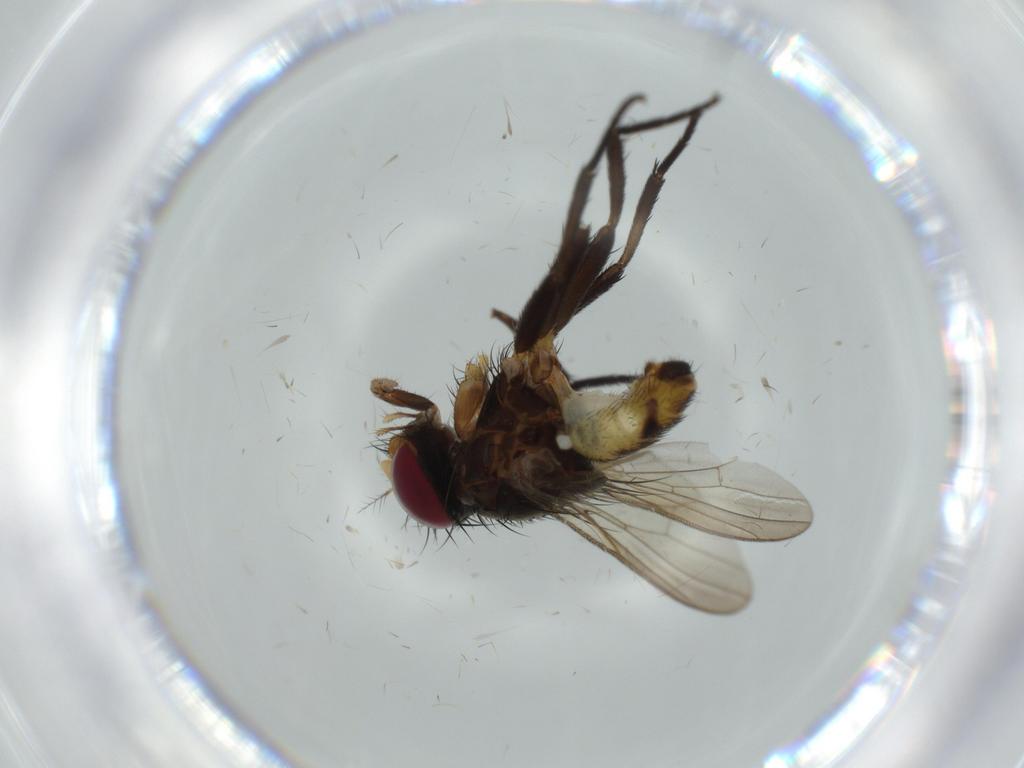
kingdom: Animalia
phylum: Arthropoda
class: Insecta
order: Diptera
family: Anthomyiidae
